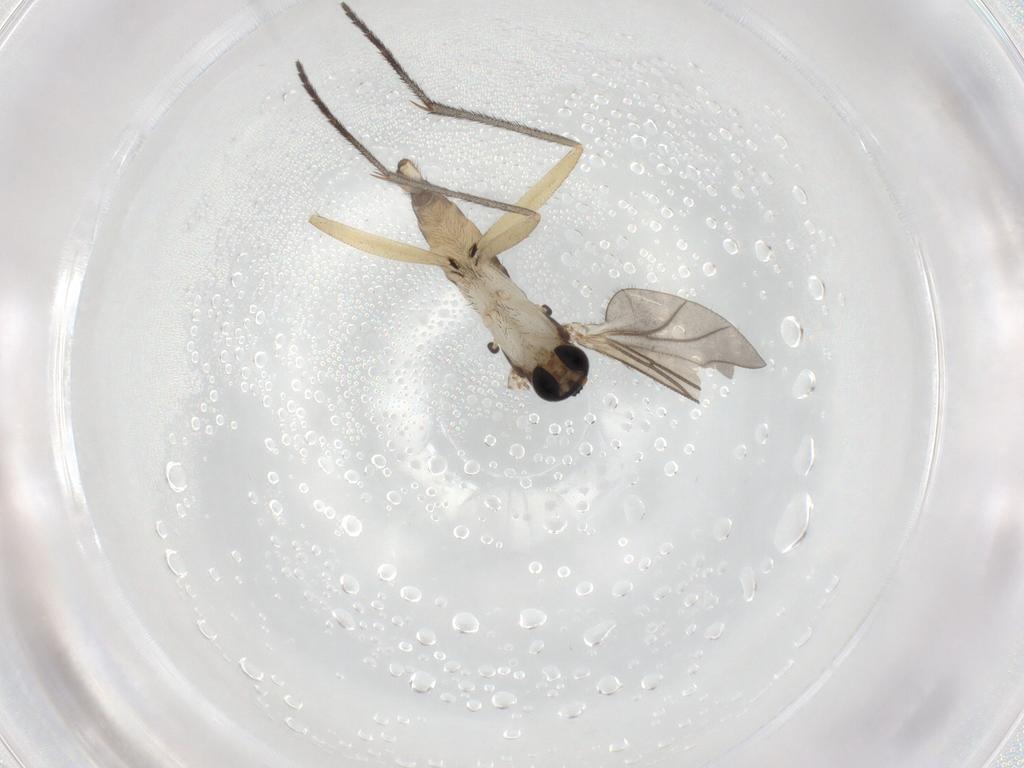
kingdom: Animalia
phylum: Arthropoda
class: Insecta
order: Diptera
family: Sciaridae
